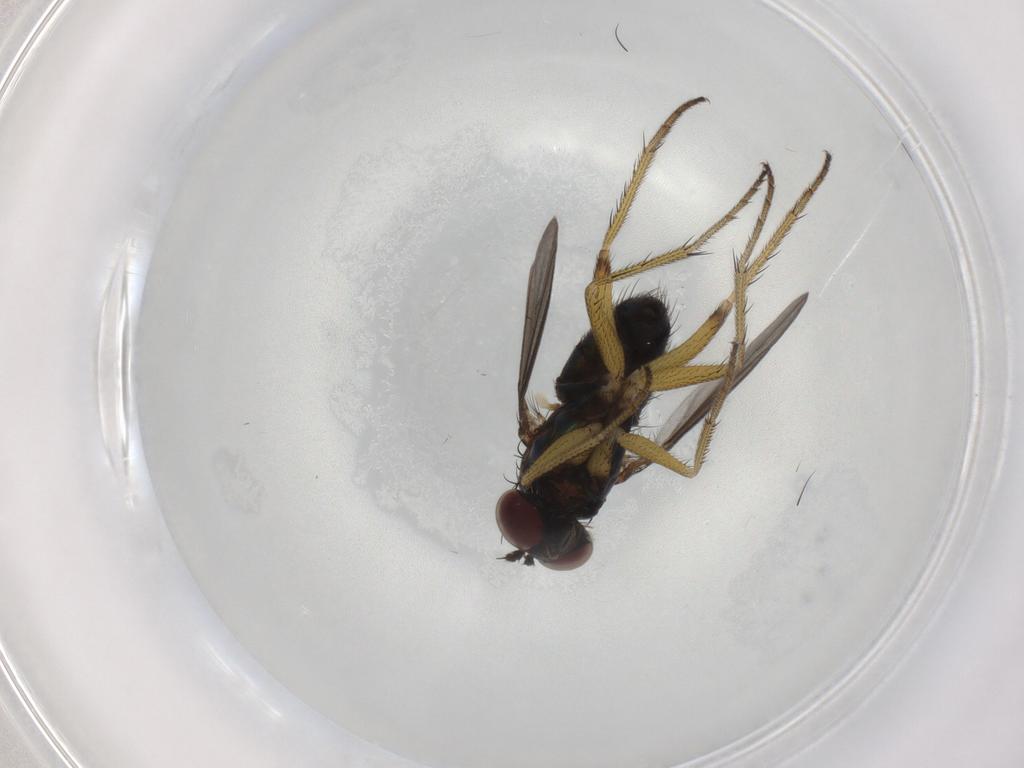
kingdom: Animalia
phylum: Arthropoda
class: Insecta
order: Diptera
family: Dolichopodidae
